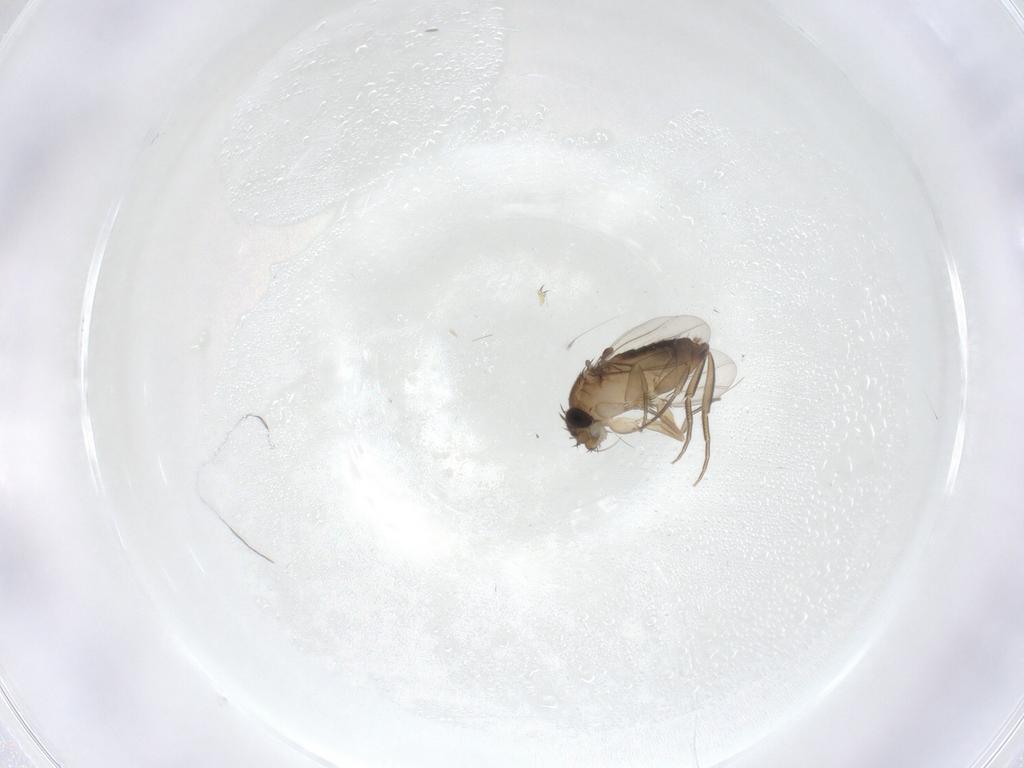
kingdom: Animalia
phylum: Arthropoda
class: Insecta
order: Diptera
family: Phoridae
